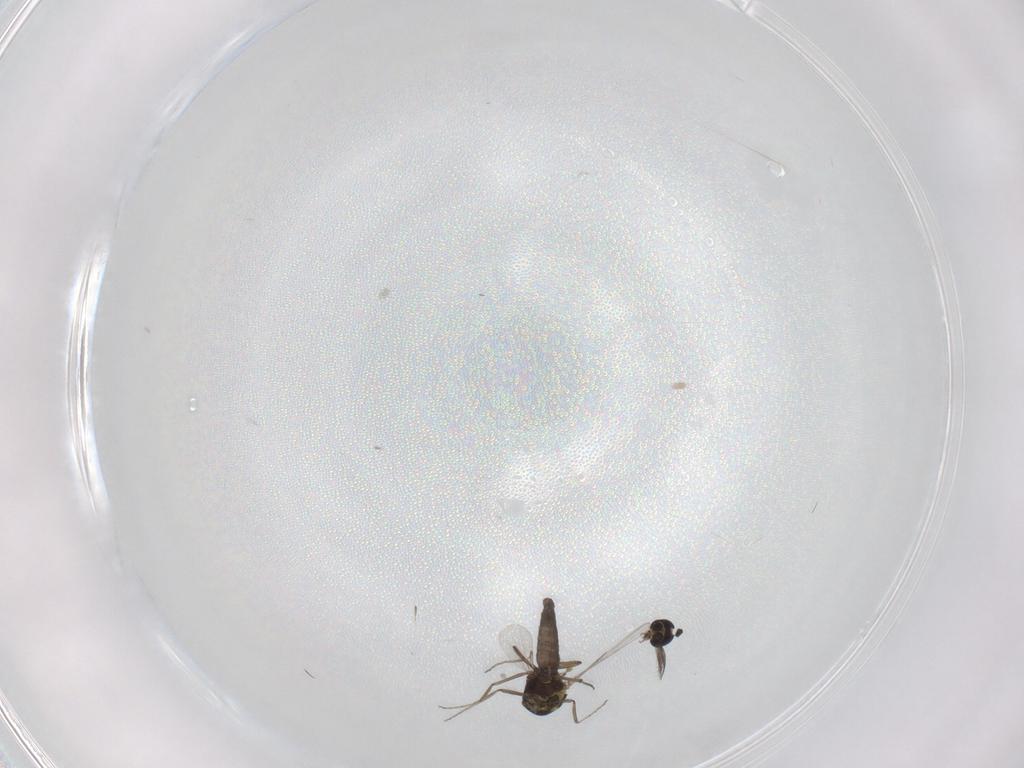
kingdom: Animalia
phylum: Arthropoda
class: Insecta
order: Diptera
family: Ceratopogonidae
